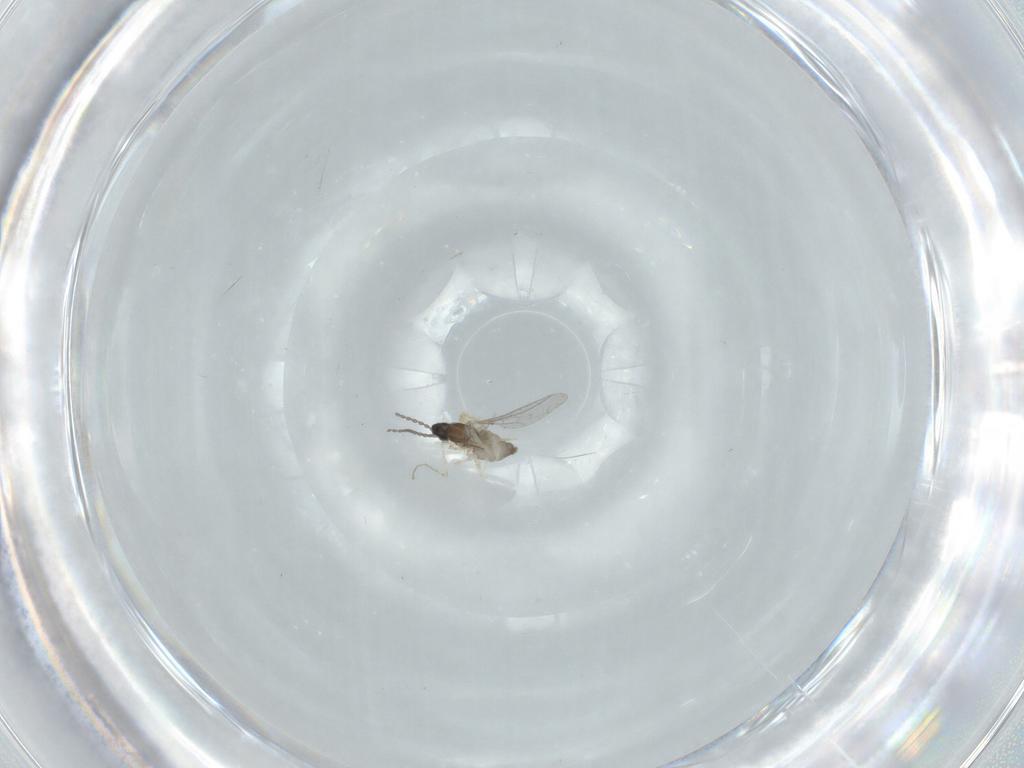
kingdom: Animalia
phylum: Arthropoda
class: Insecta
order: Diptera
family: Cecidomyiidae
